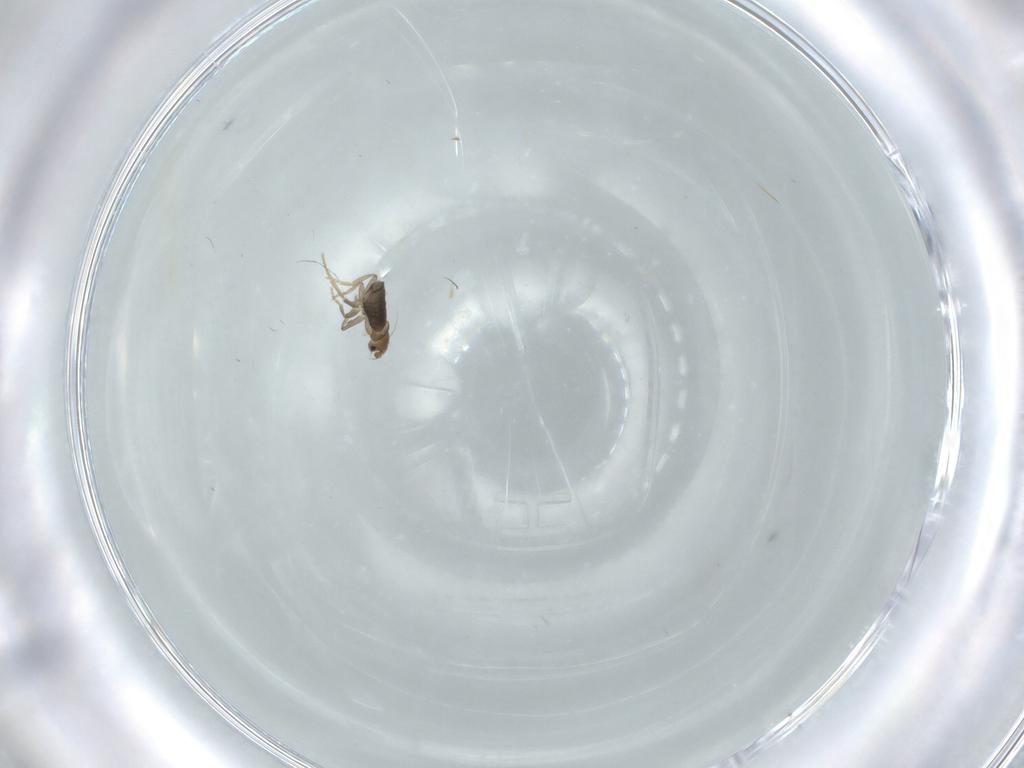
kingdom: Animalia
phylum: Arthropoda
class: Insecta
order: Diptera
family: Phoridae
